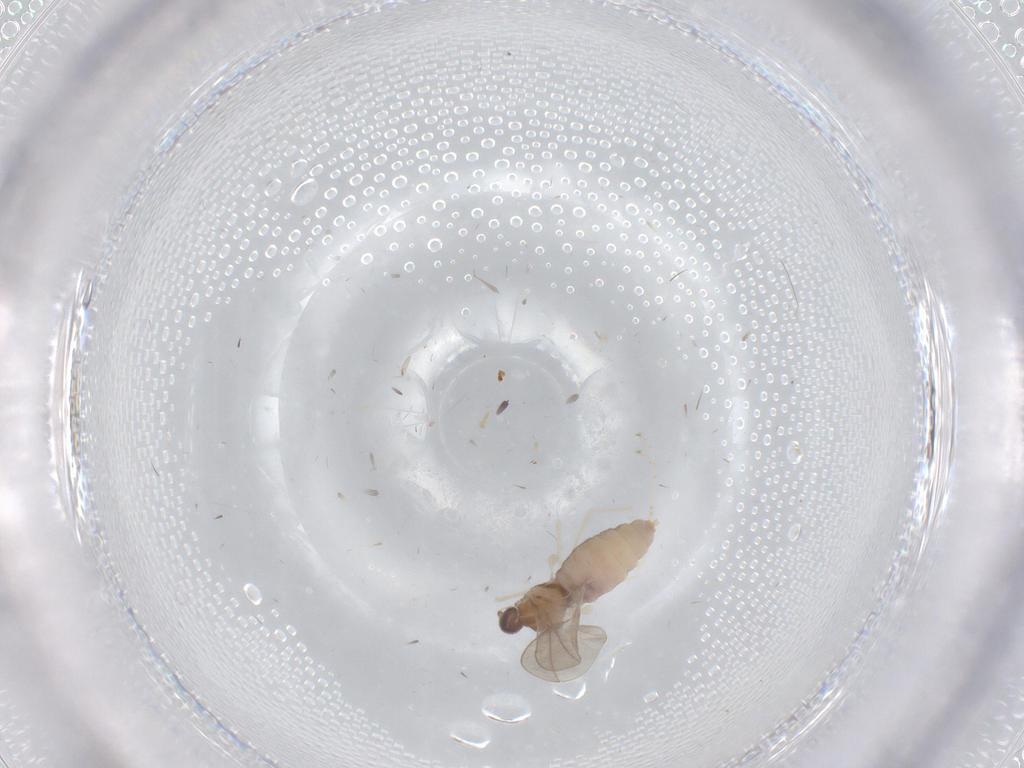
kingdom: Animalia
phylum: Arthropoda
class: Insecta
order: Diptera
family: Cecidomyiidae
